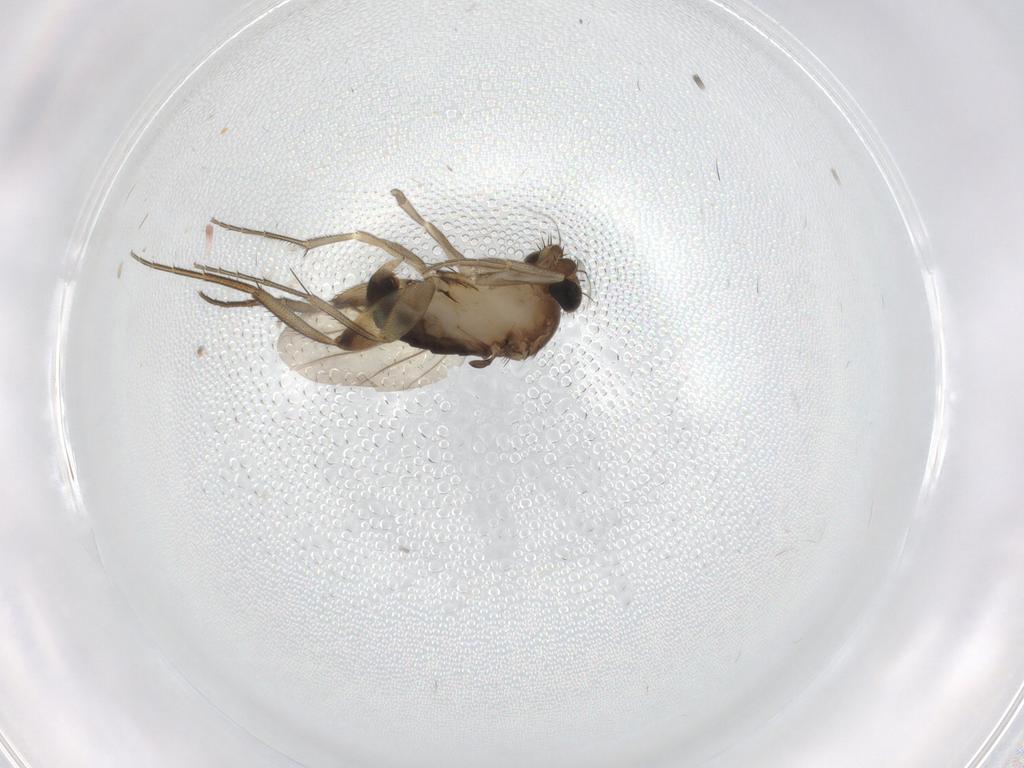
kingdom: Animalia
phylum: Arthropoda
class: Insecta
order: Diptera
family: Phoridae
